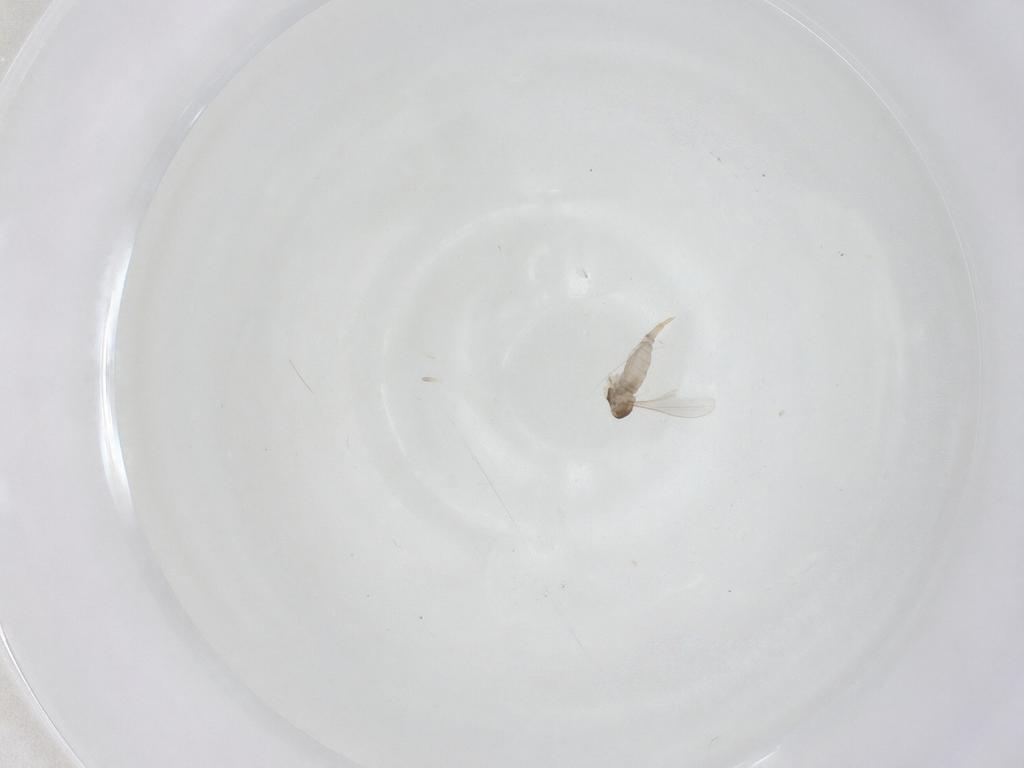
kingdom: Animalia
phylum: Arthropoda
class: Insecta
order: Diptera
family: Cecidomyiidae
